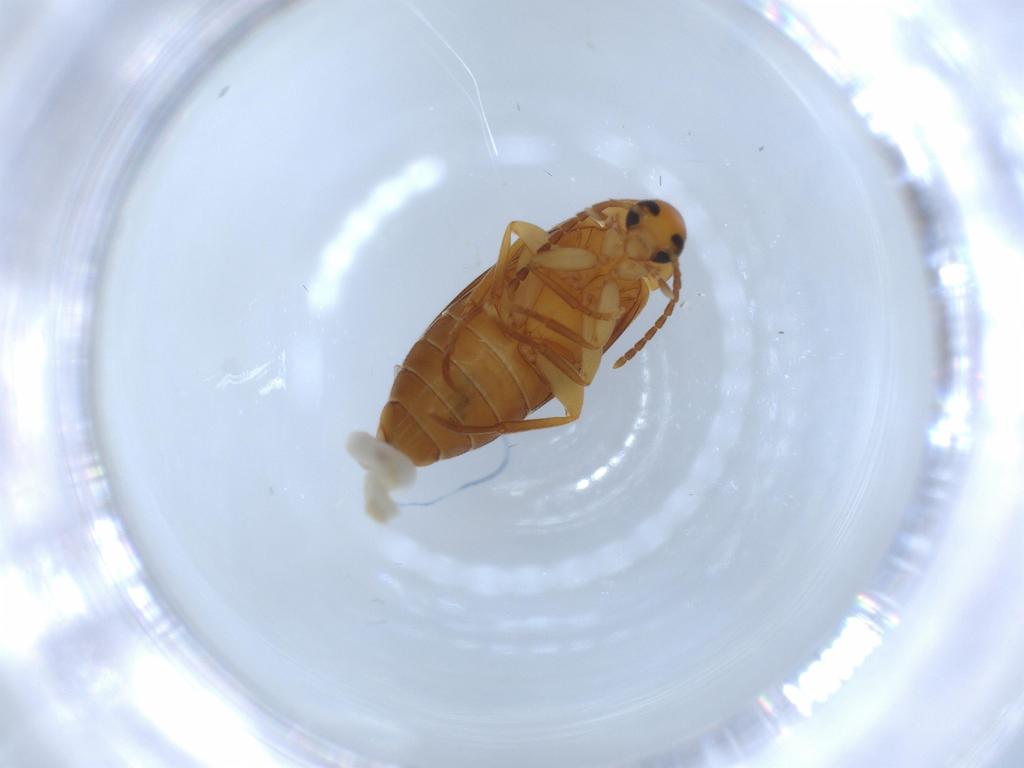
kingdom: Animalia
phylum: Arthropoda
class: Insecta
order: Coleoptera
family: Scraptiidae
